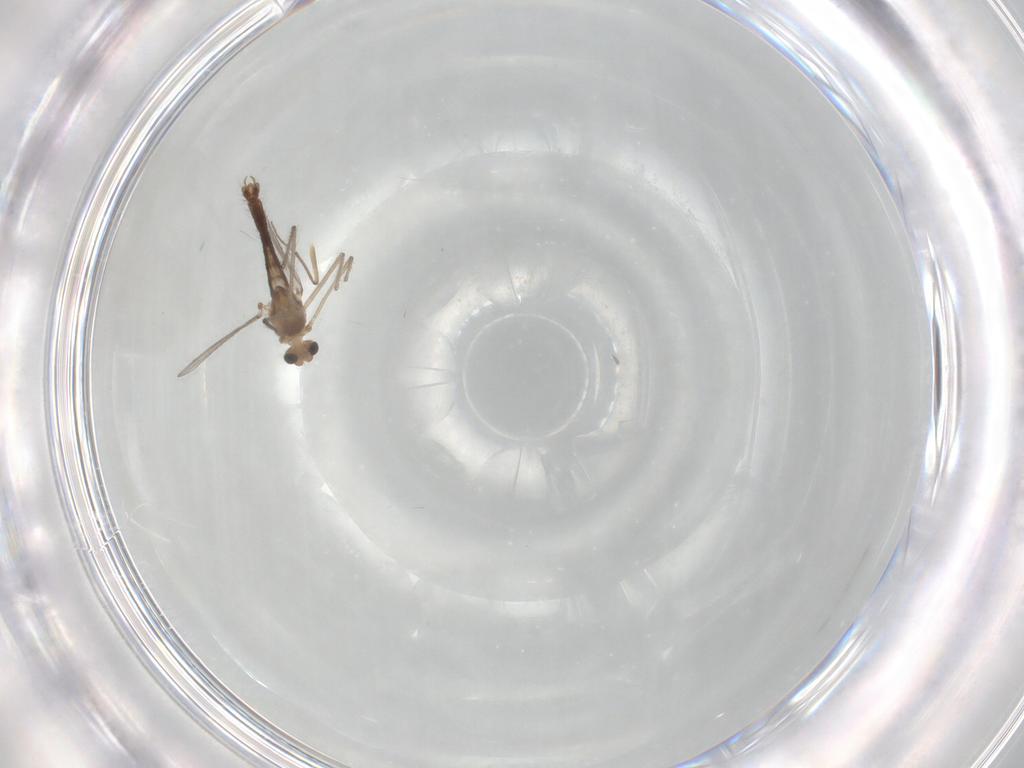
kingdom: Animalia
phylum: Arthropoda
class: Insecta
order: Diptera
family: Chironomidae
